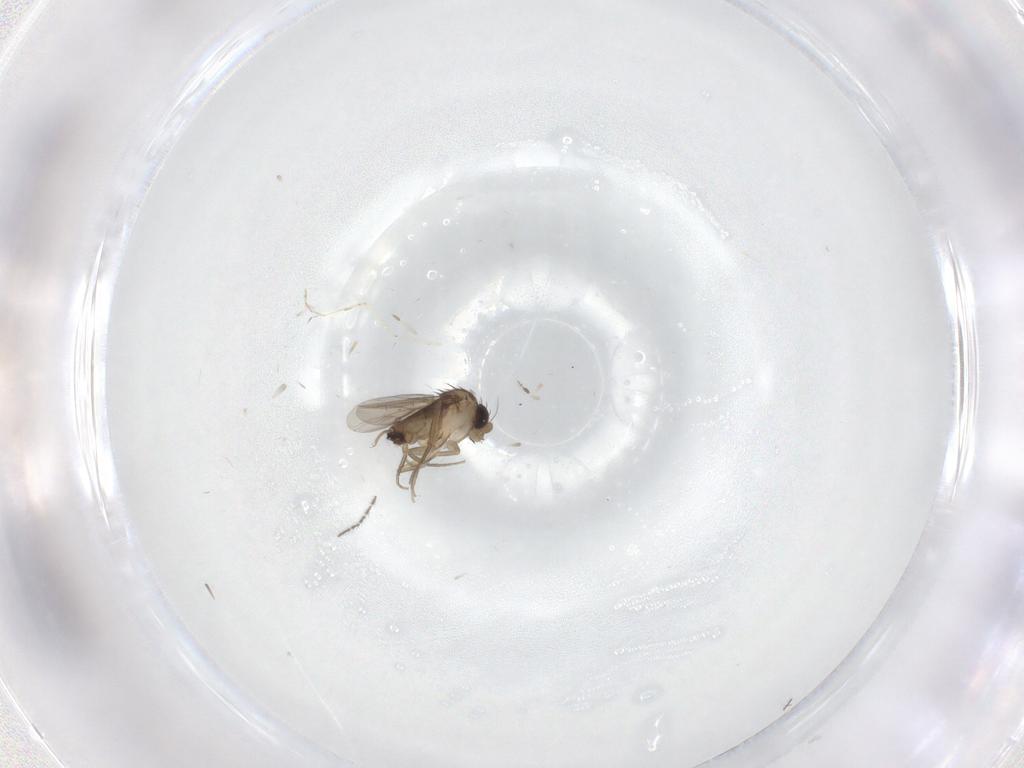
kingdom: Animalia
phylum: Arthropoda
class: Insecta
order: Diptera
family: Phoridae
